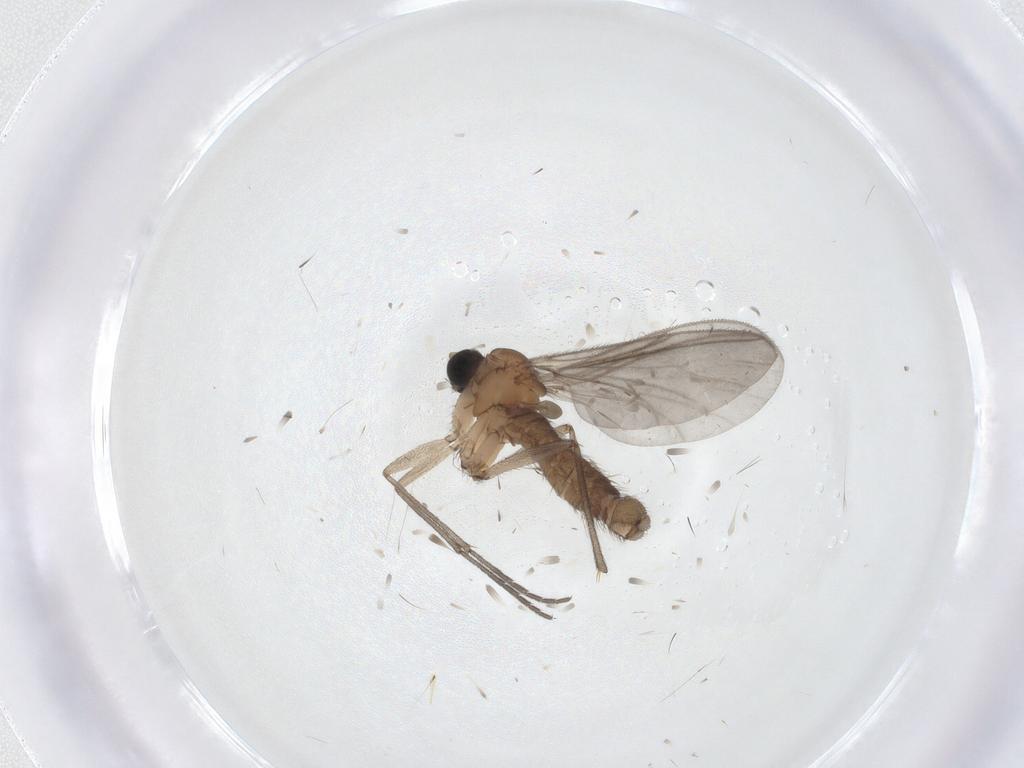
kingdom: Animalia
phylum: Arthropoda
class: Insecta
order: Diptera
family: Sciaridae
